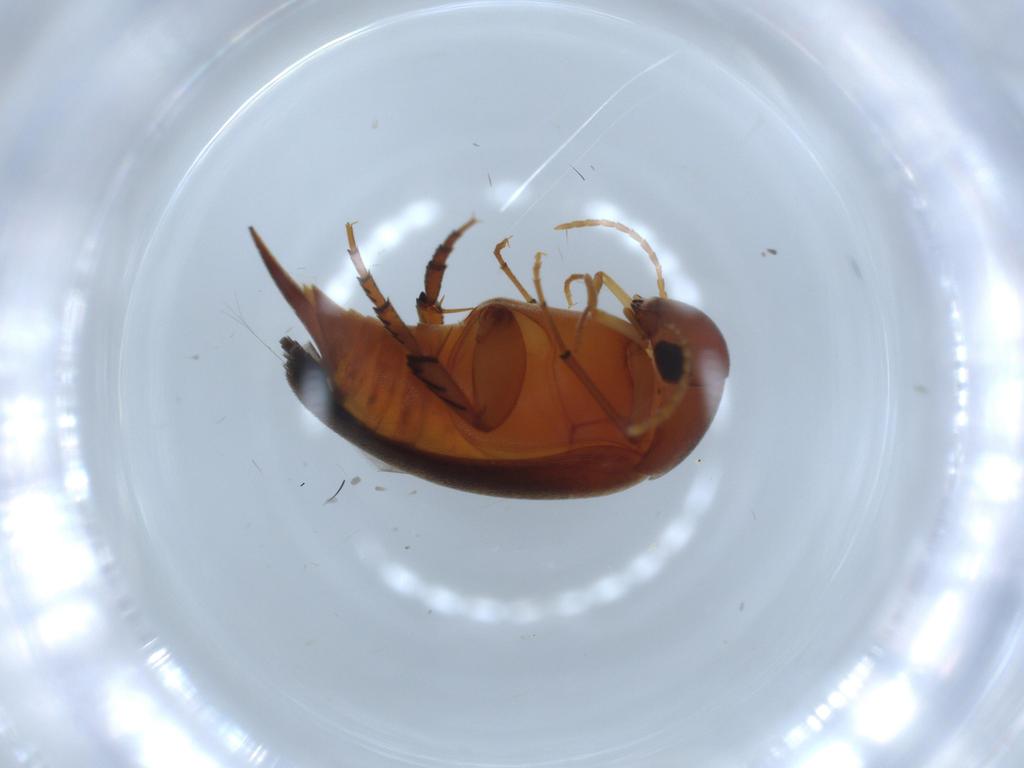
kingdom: Animalia
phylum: Arthropoda
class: Insecta
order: Coleoptera
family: Mordellidae
